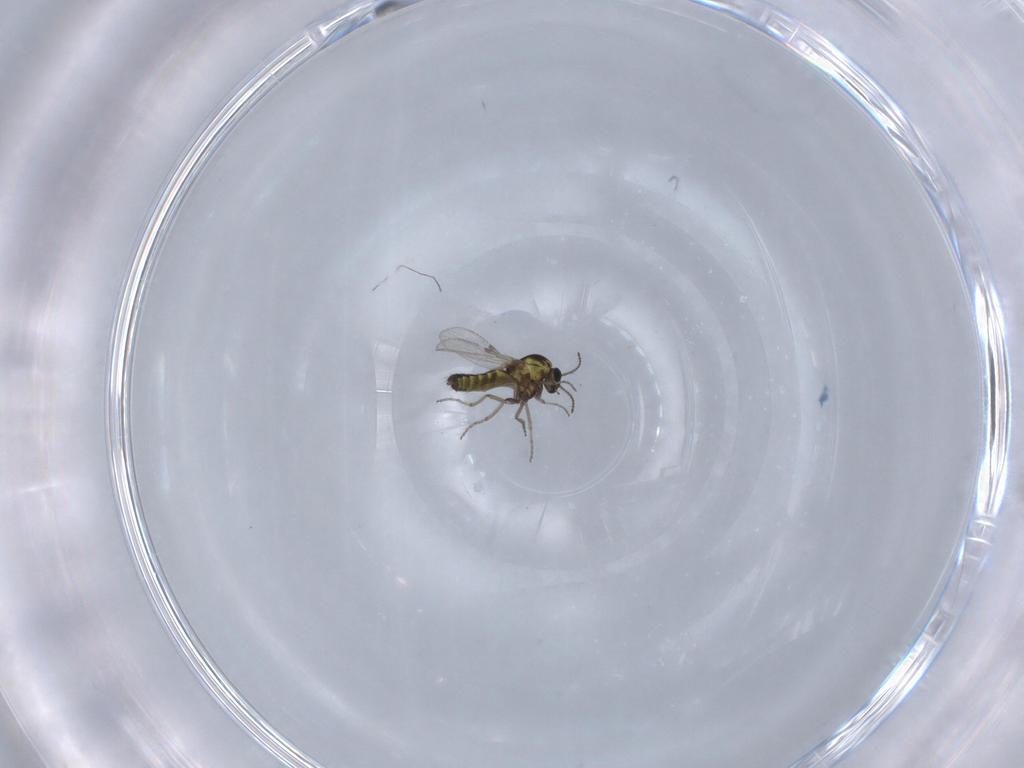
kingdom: Animalia
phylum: Arthropoda
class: Insecta
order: Diptera
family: Ceratopogonidae
